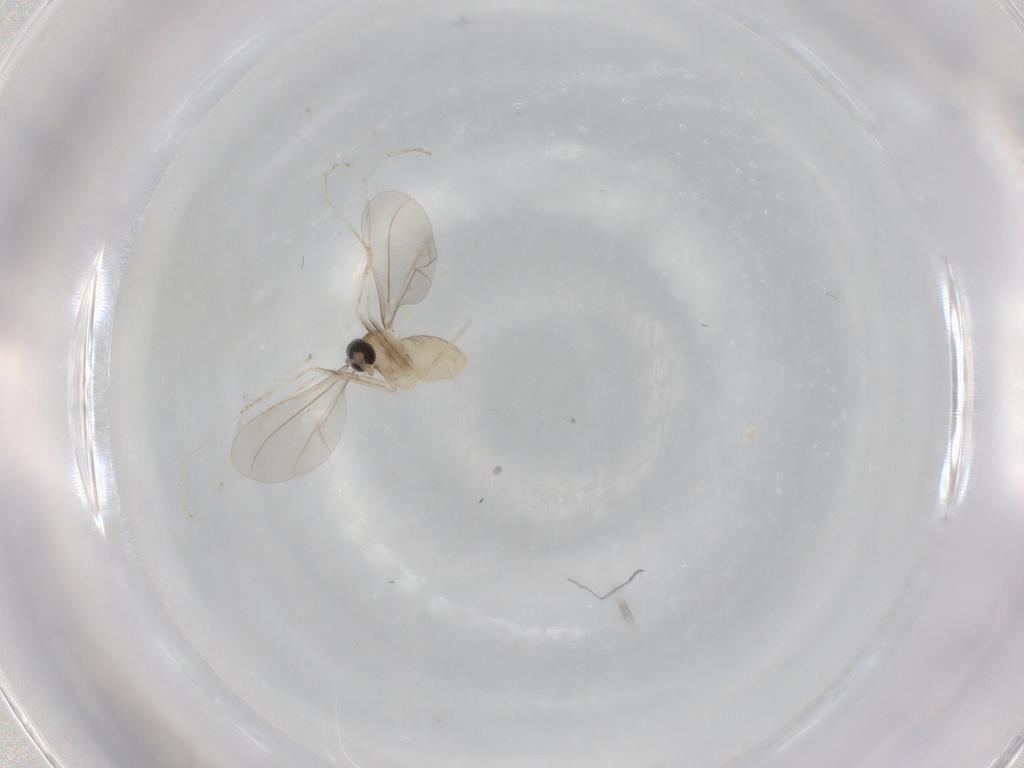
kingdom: Animalia
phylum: Arthropoda
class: Insecta
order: Diptera
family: Cecidomyiidae
